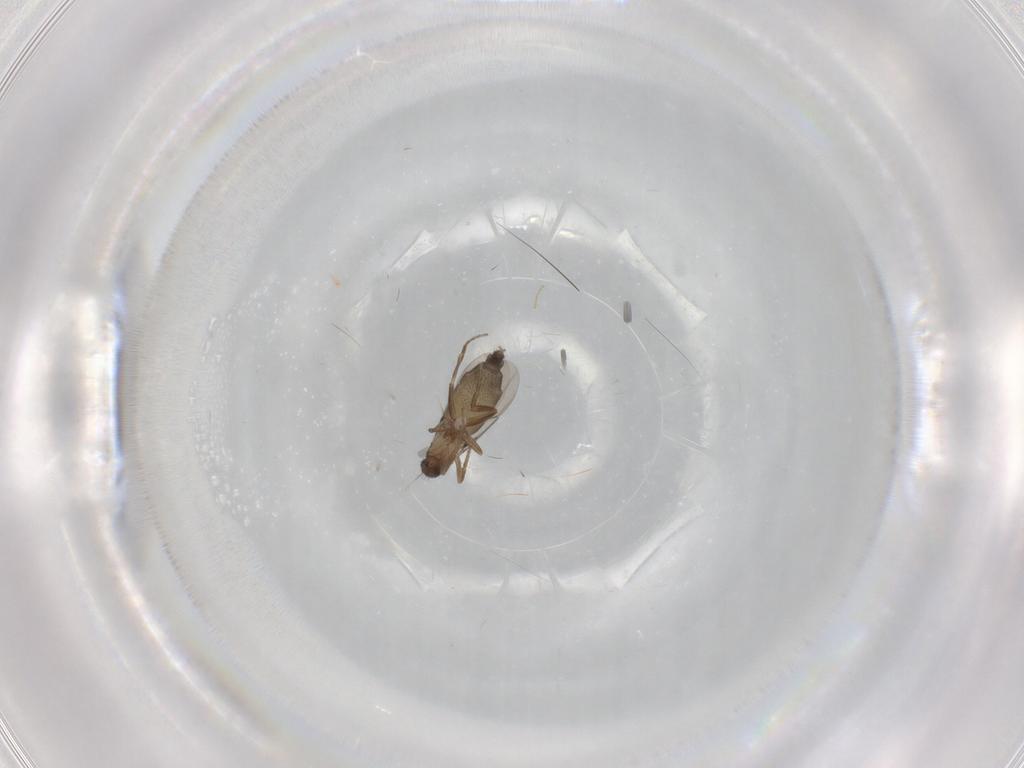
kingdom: Animalia
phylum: Arthropoda
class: Insecta
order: Diptera
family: Phoridae
